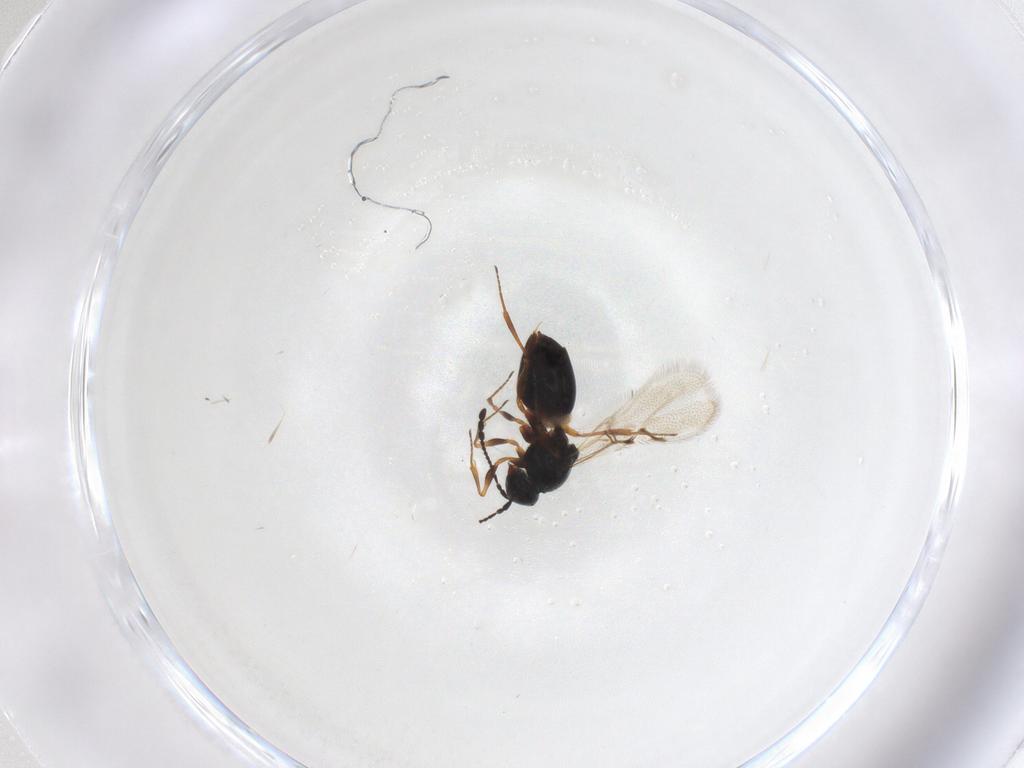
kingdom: Animalia
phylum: Arthropoda
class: Insecta
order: Hymenoptera
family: Figitidae
